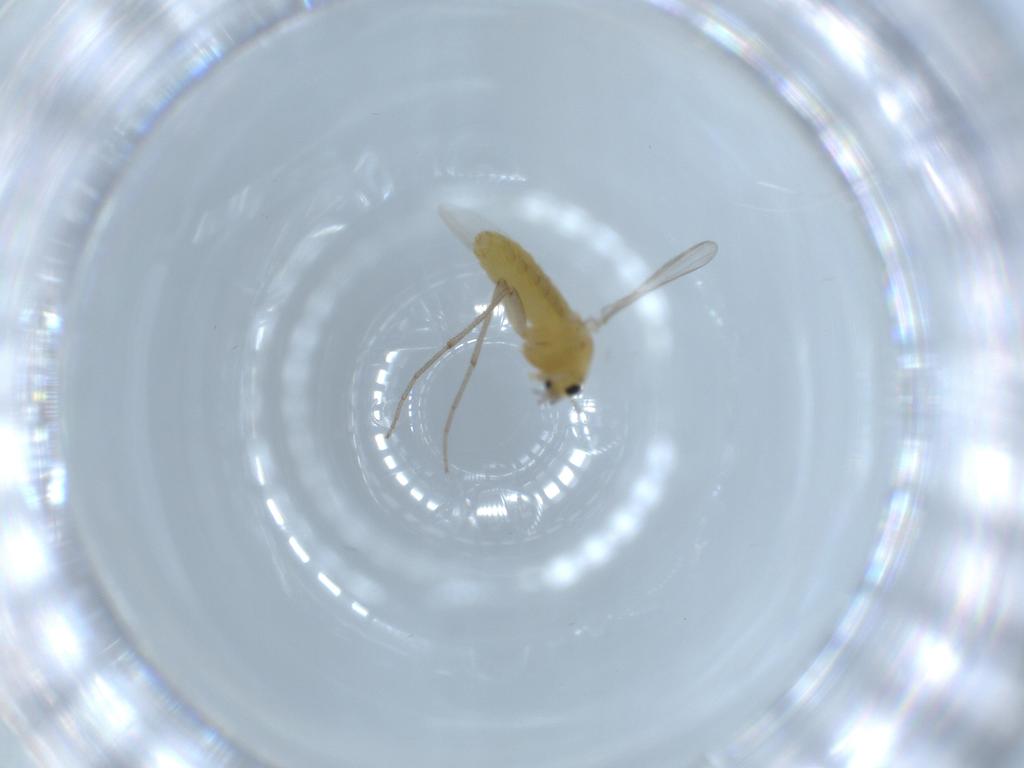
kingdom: Animalia
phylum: Arthropoda
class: Insecta
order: Diptera
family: Chironomidae
